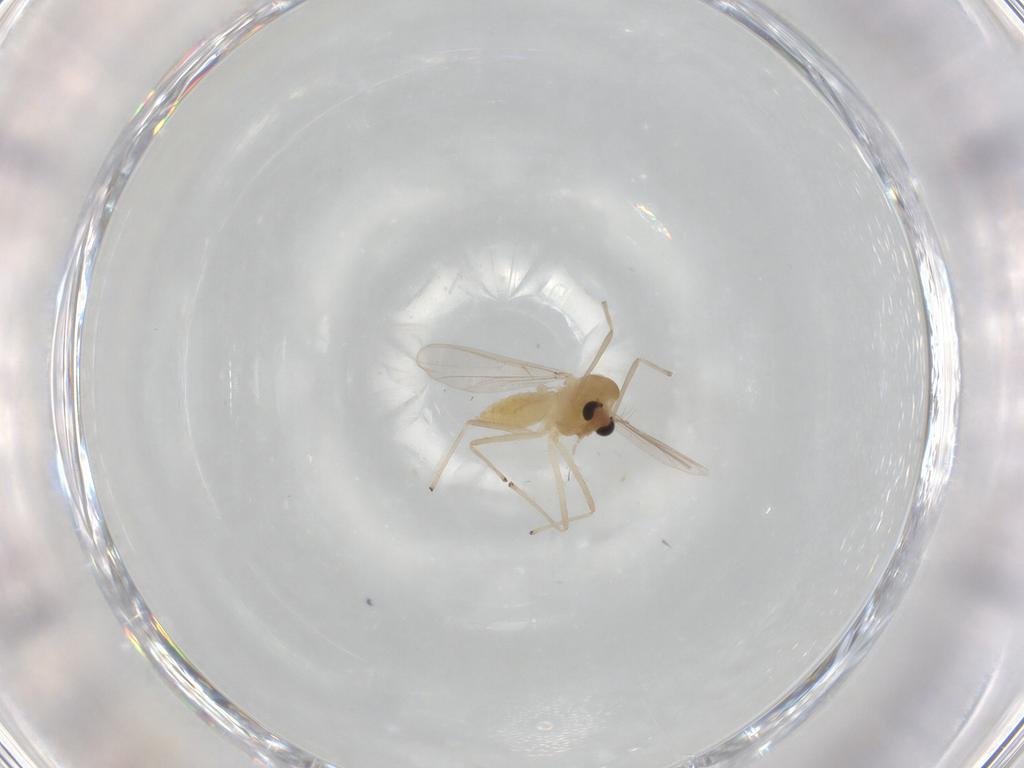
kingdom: Animalia
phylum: Arthropoda
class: Insecta
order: Diptera
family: Chironomidae
